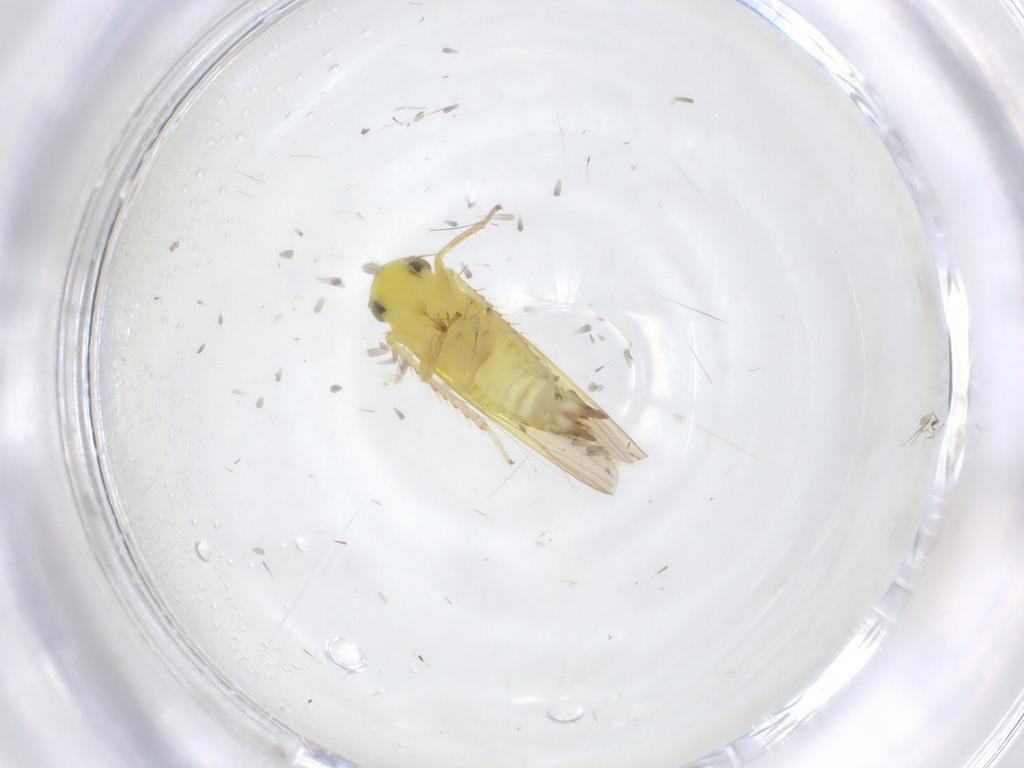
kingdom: Animalia
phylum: Arthropoda
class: Insecta
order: Hemiptera
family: Cicadellidae
